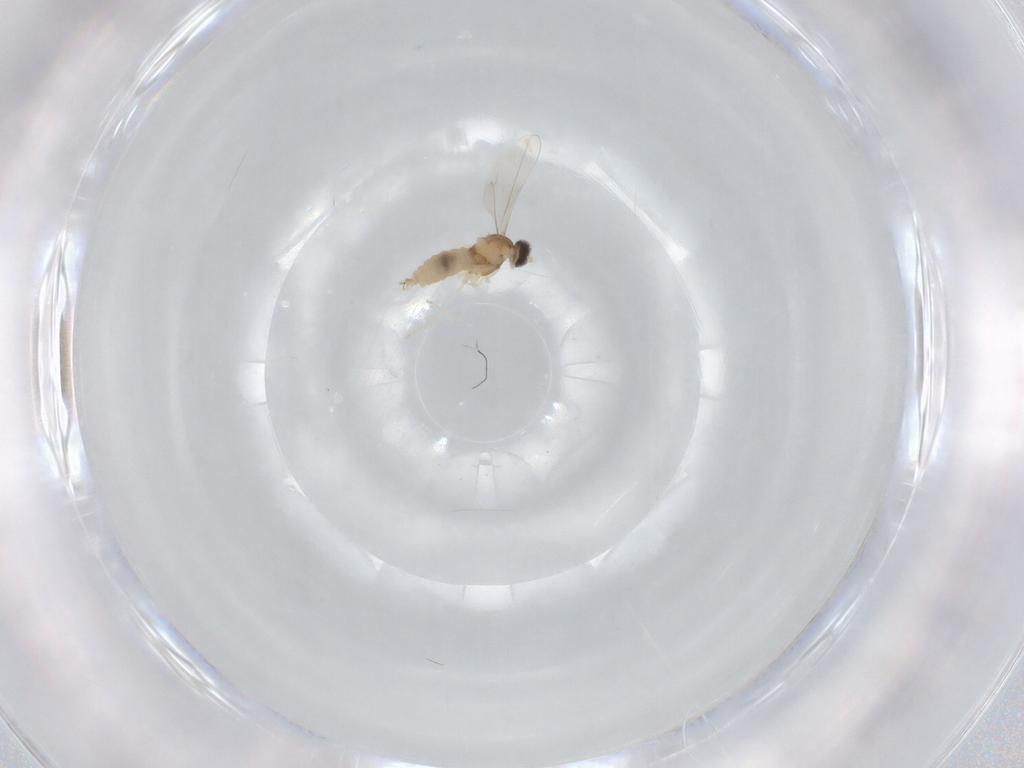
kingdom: Animalia
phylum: Arthropoda
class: Insecta
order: Diptera
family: Cecidomyiidae
